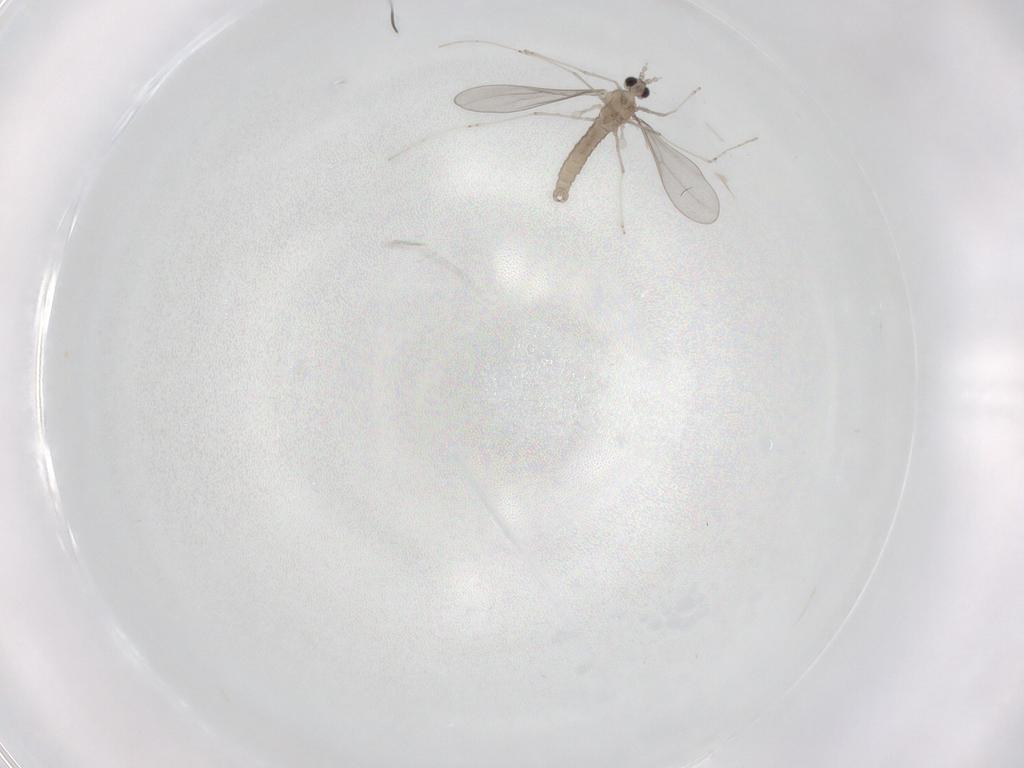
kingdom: Animalia
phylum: Arthropoda
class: Insecta
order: Diptera
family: Cecidomyiidae
